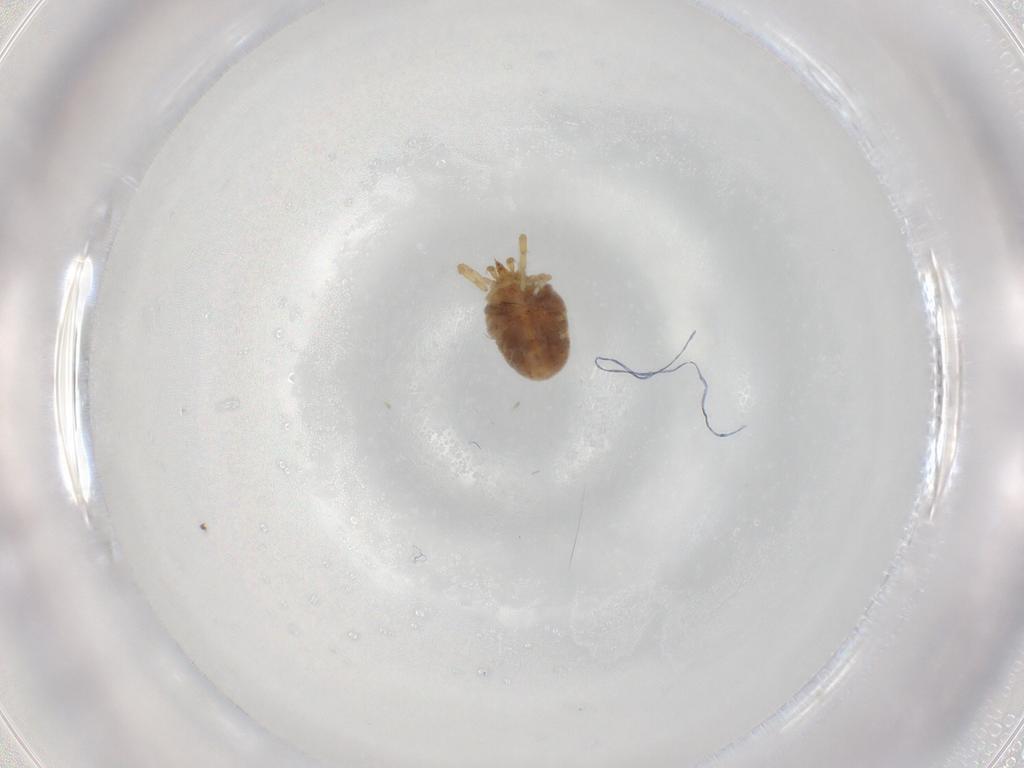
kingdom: Animalia
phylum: Arthropoda
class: Arachnida
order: Trombidiformes
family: Erythraeidae
